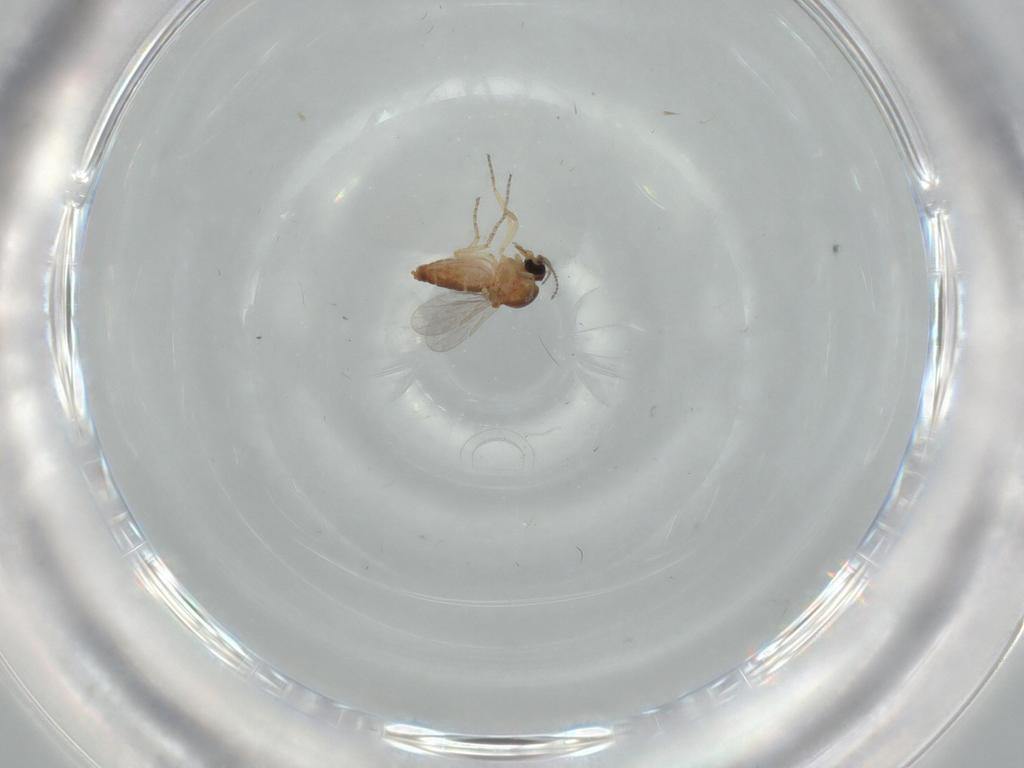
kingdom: Animalia
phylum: Arthropoda
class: Insecta
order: Diptera
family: Ceratopogonidae
